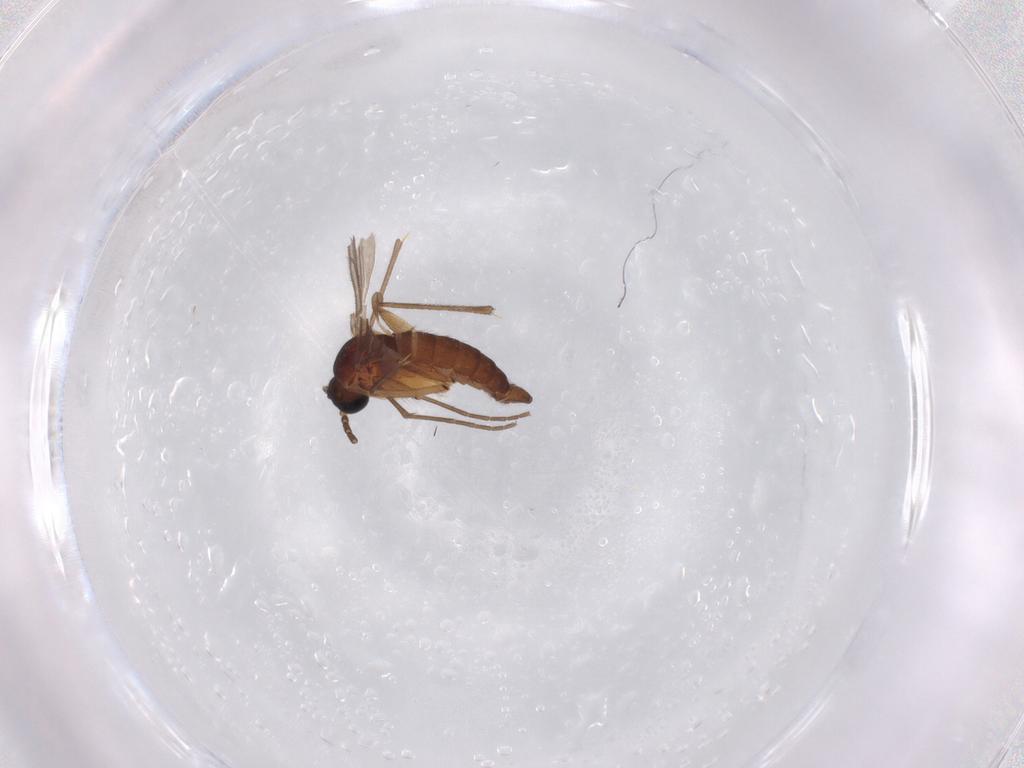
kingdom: Animalia
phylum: Arthropoda
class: Insecta
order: Diptera
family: Sciaridae
